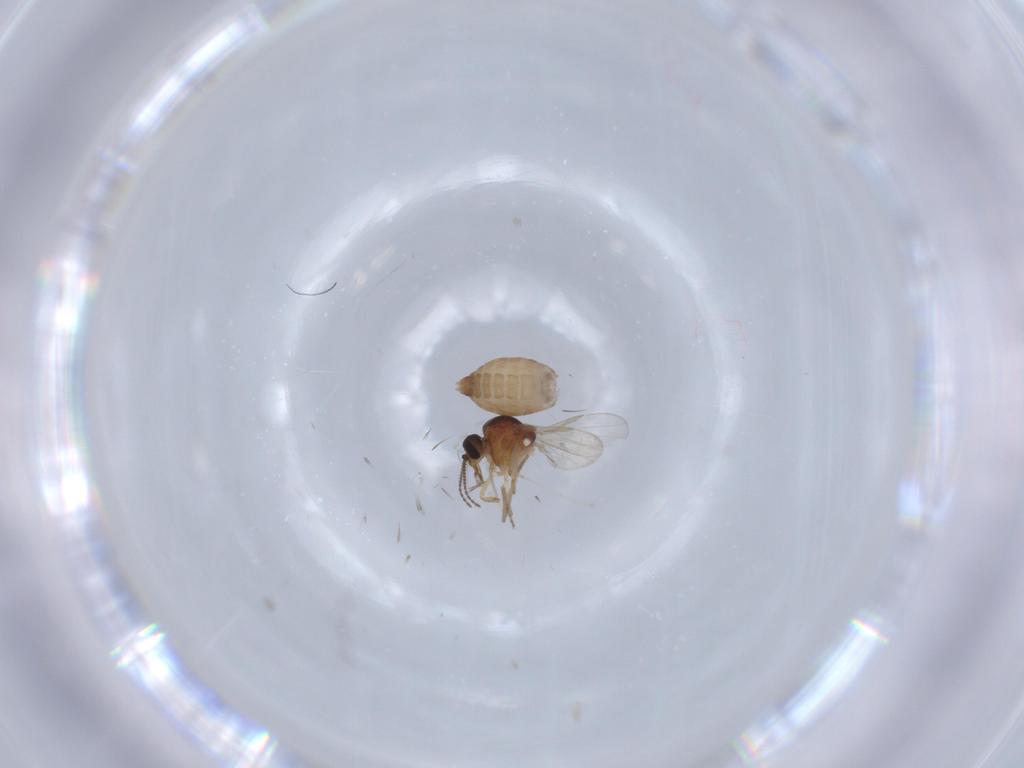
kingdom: Animalia
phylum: Arthropoda
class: Insecta
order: Diptera
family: Ceratopogonidae
